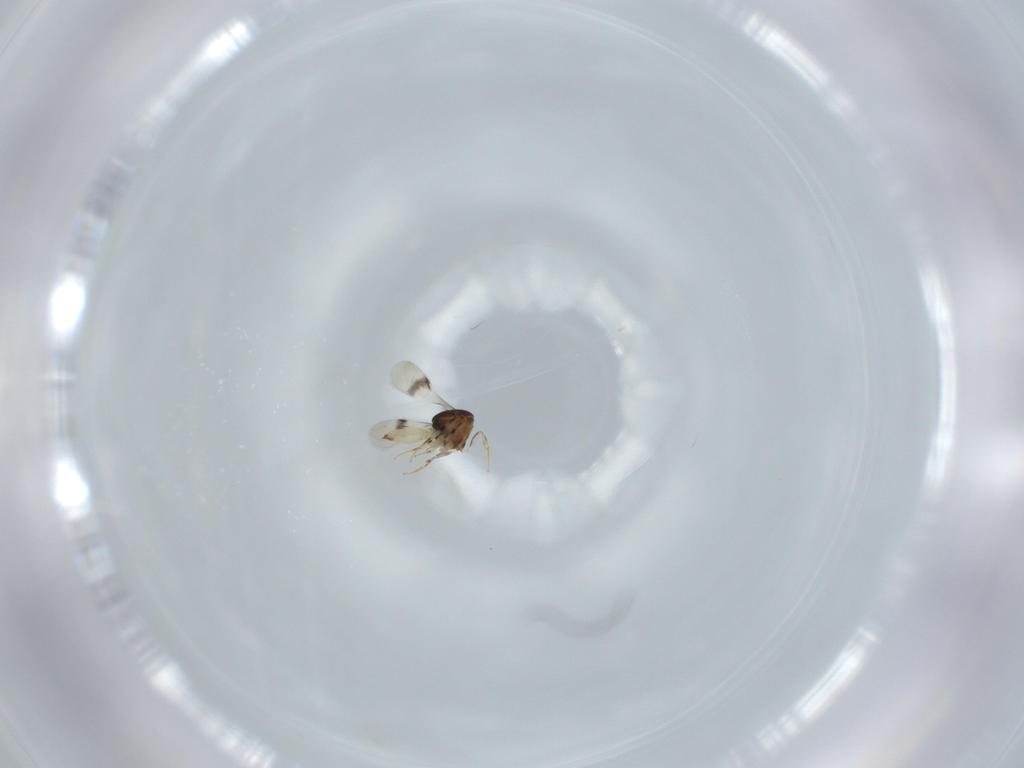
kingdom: Animalia
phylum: Arthropoda
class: Insecta
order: Hymenoptera
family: Scelionidae
